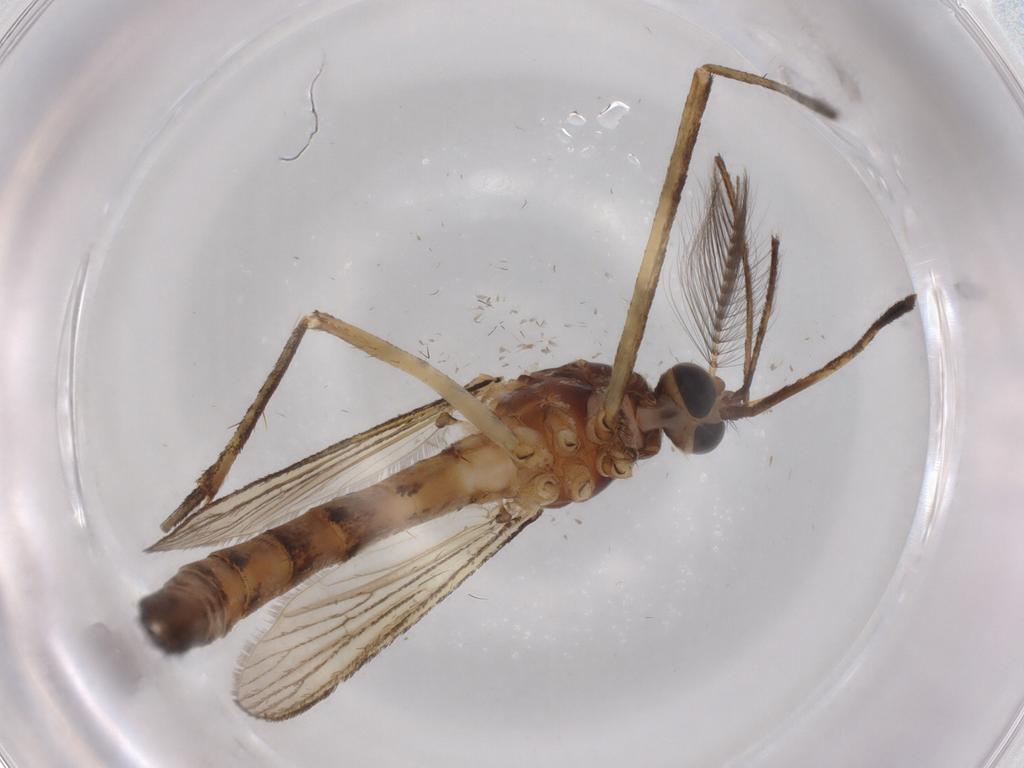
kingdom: Animalia
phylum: Arthropoda
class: Insecta
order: Diptera
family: Culicidae
